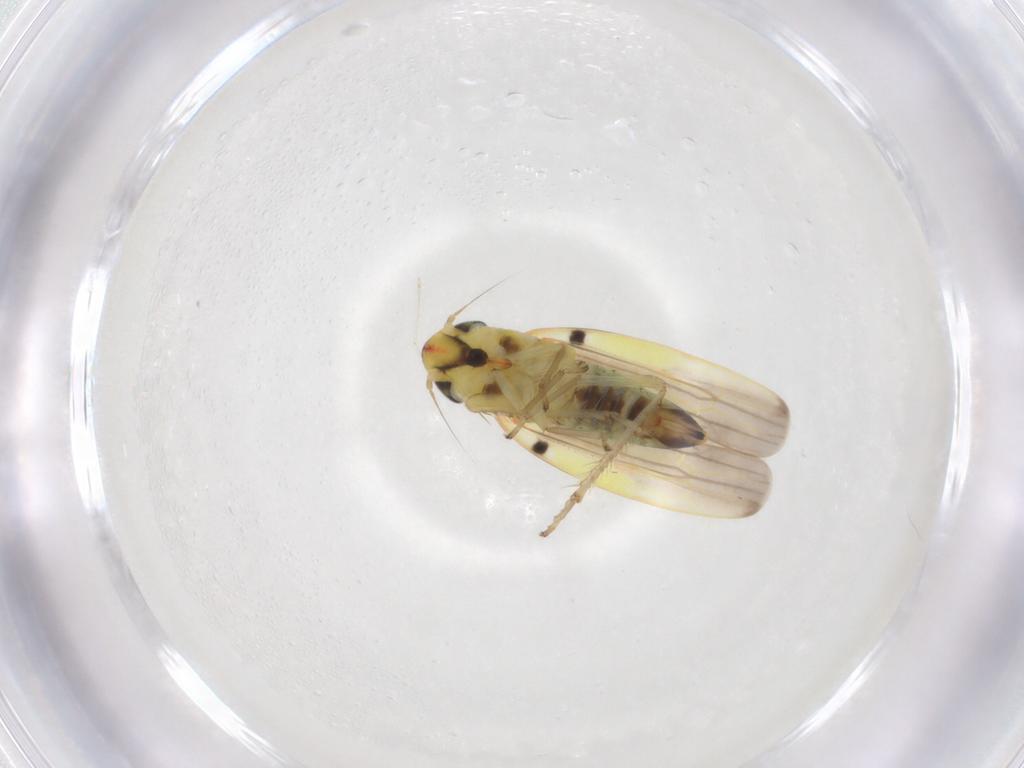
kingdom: Animalia
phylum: Arthropoda
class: Insecta
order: Hemiptera
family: Cicadellidae
